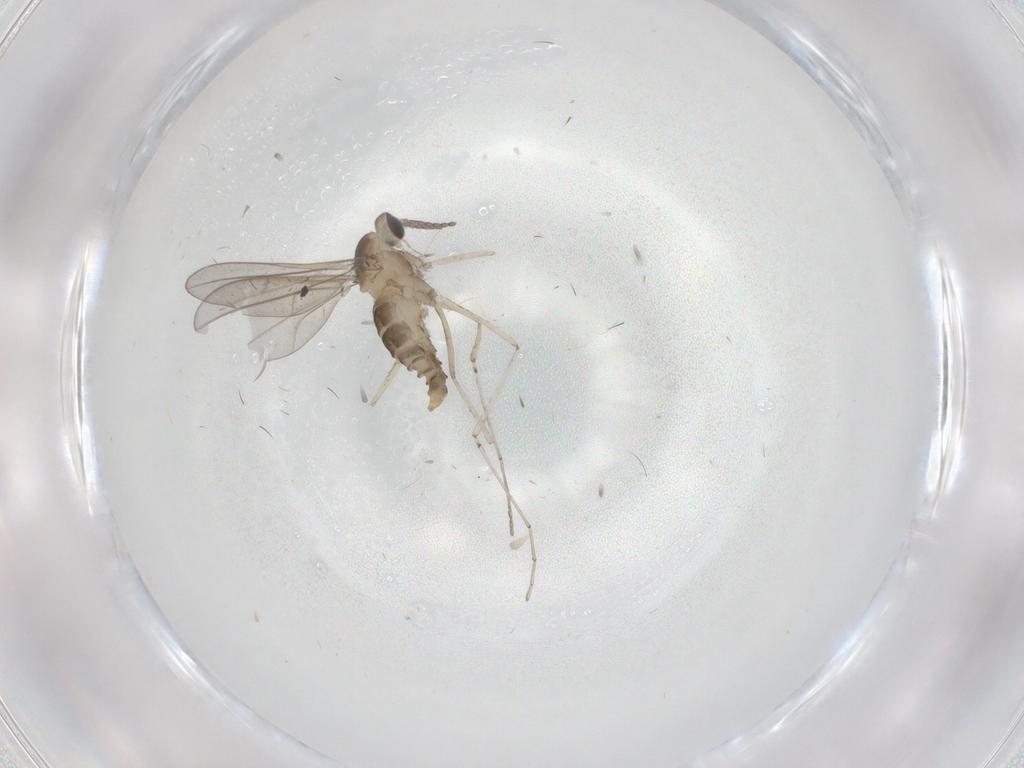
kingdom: Animalia
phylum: Arthropoda
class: Insecta
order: Diptera
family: Cecidomyiidae
